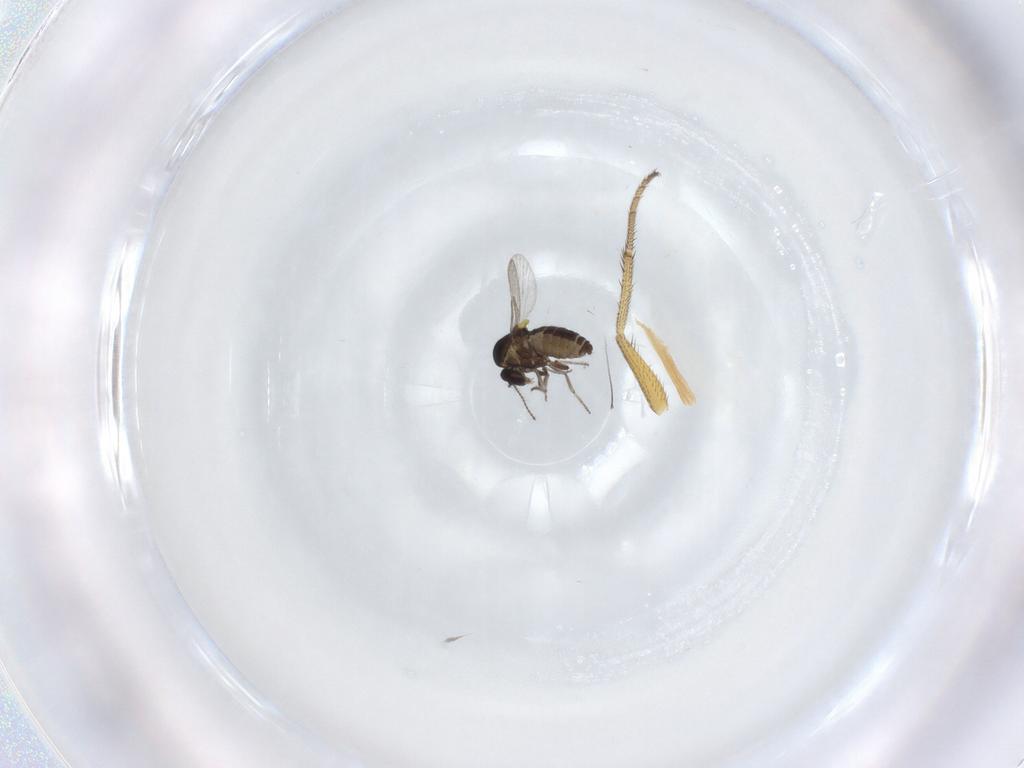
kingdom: Animalia
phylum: Arthropoda
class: Insecta
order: Diptera
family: Dolichopodidae
